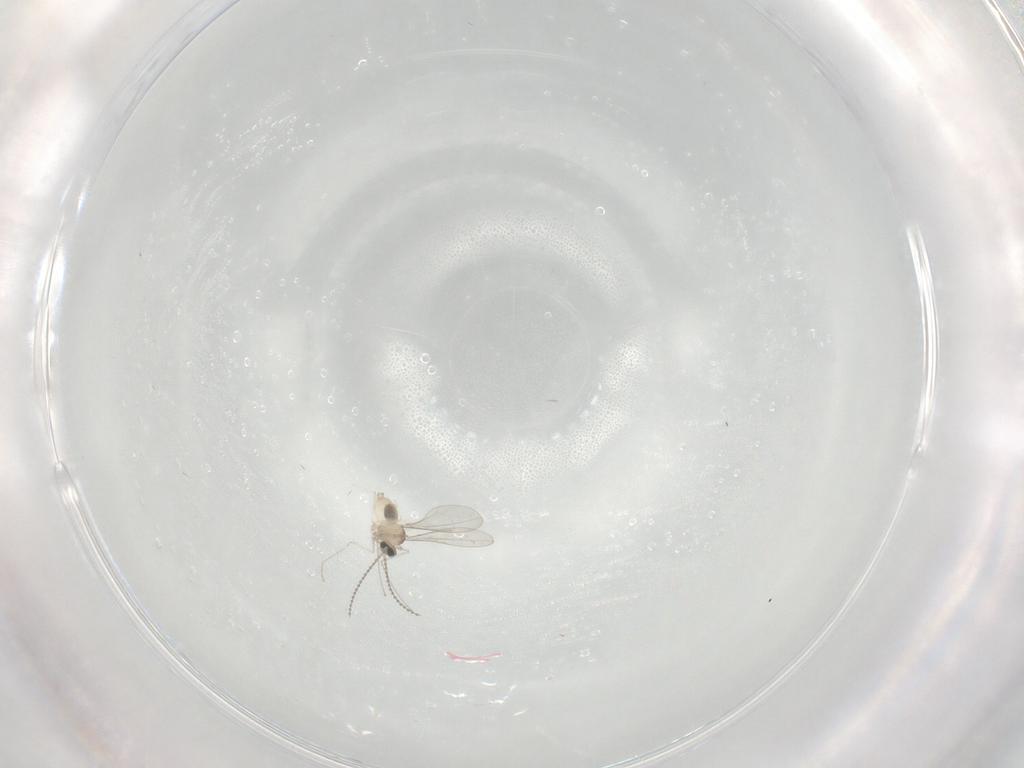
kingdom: Animalia
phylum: Arthropoda
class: Insecta
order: Diptera
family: Cecidomyiidae
